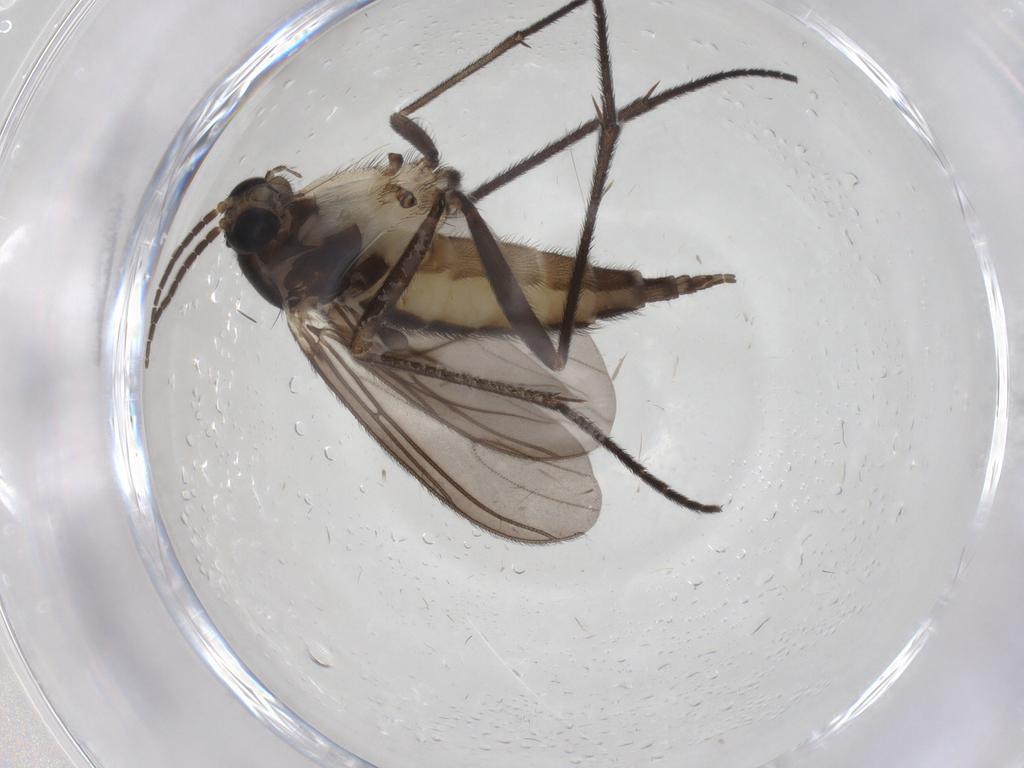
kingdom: Animalia
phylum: Arthropoda
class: Insecta
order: Diptera
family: Sciaridae
